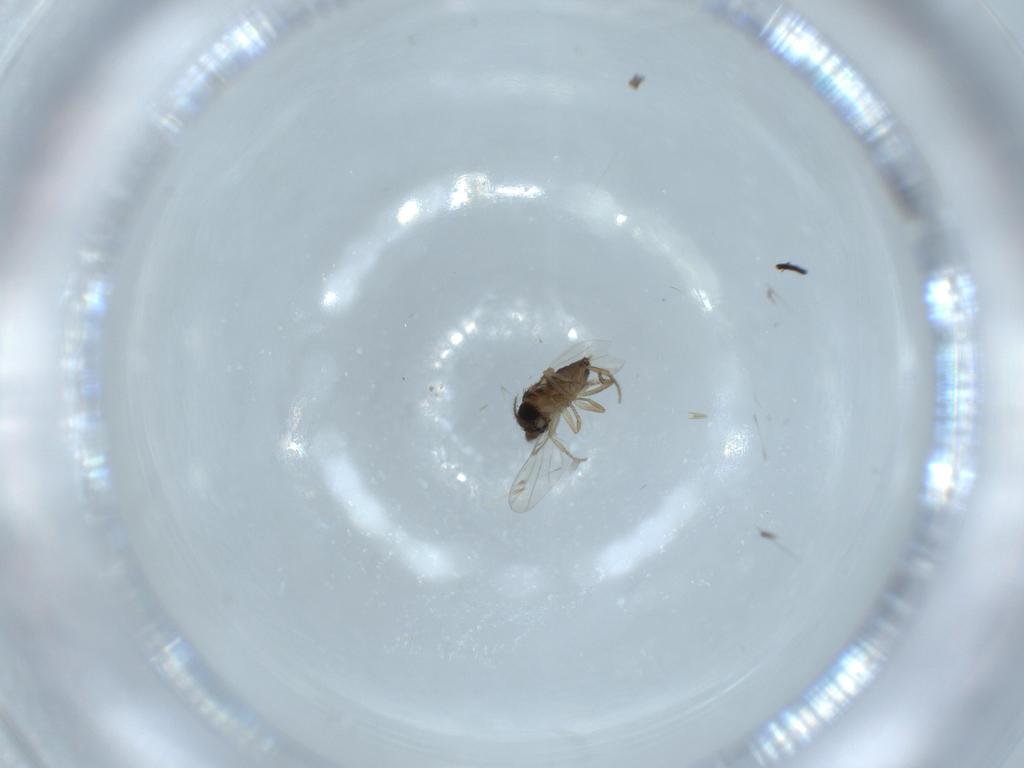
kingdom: Animalia
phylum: Arthropoda
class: Insecta
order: Diptera
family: Phoridae
